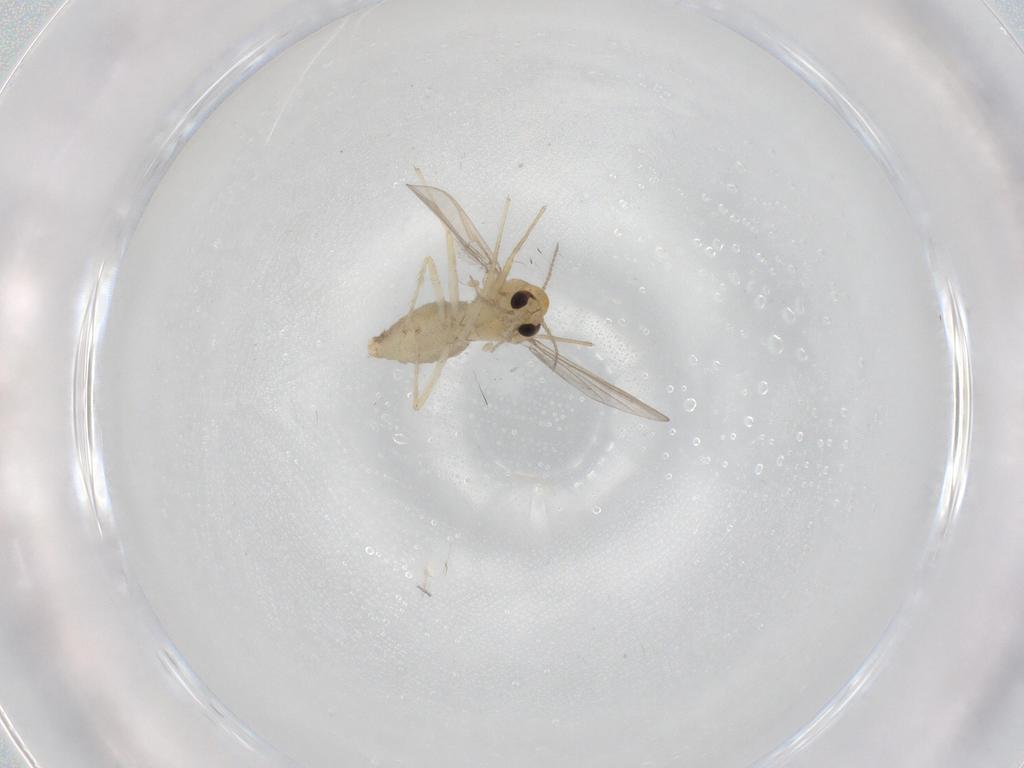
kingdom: Animalia
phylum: Arthropoda
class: Insecta
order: Diptera
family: Chironomidae
